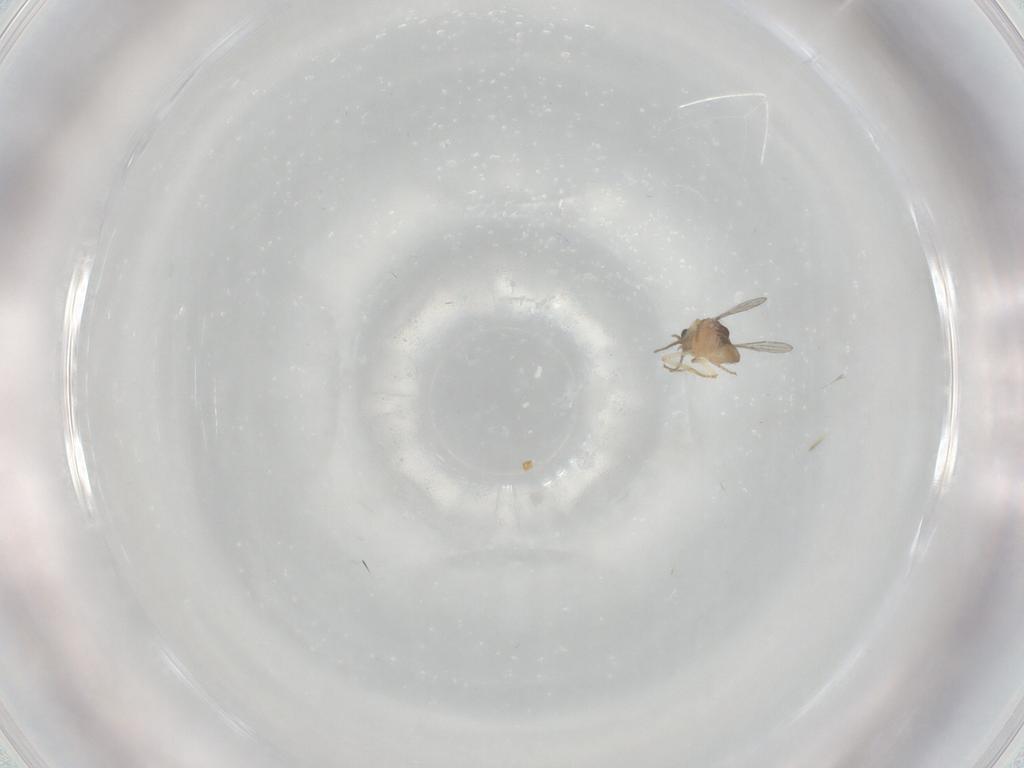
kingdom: Animalia
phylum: Arthropoda
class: Insecta
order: Diptera
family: Ceratopogonidae
